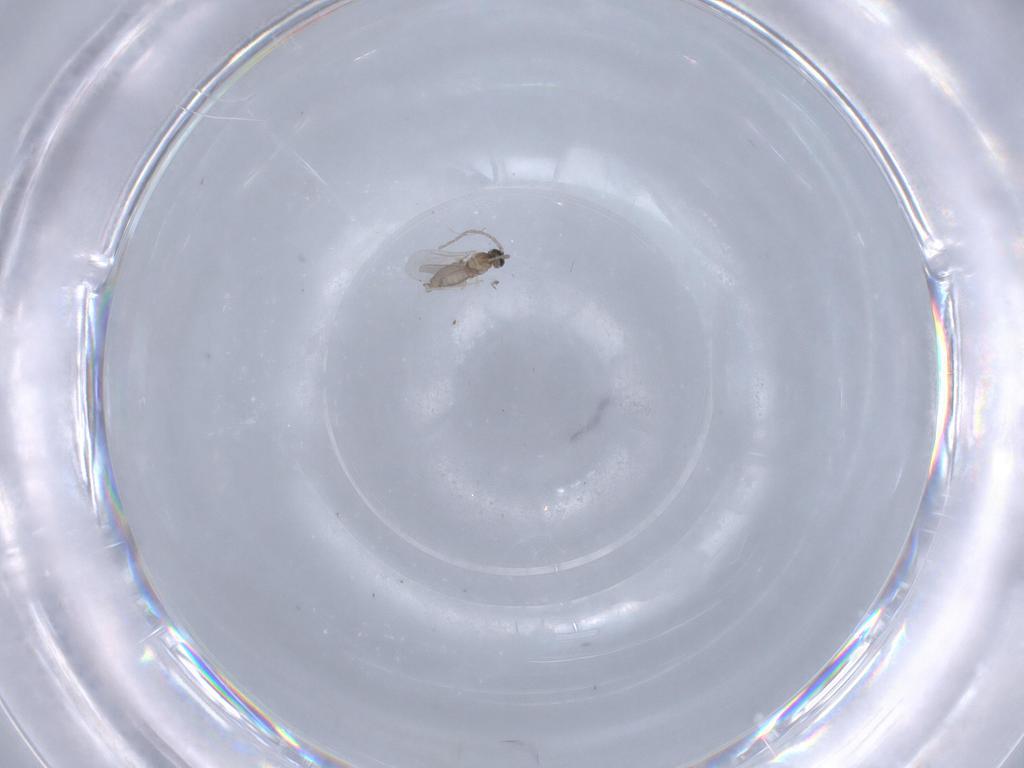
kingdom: Animalia
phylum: Arthropoda
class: Insecta
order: Diptera
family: Cecidomyiidae
